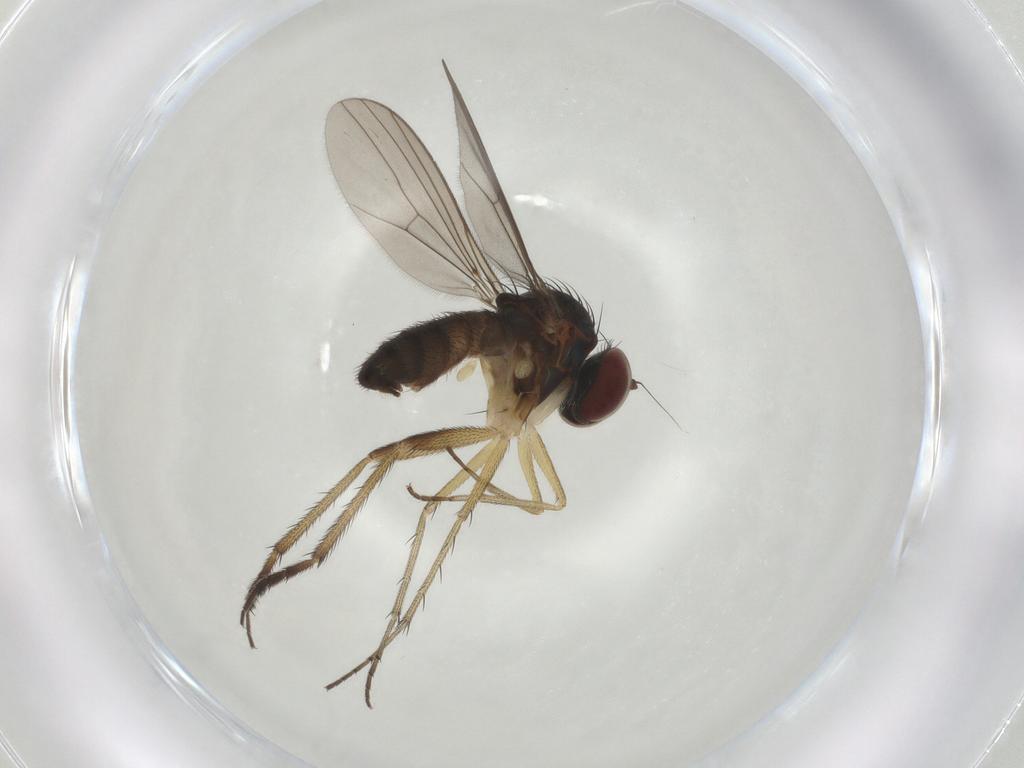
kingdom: Animalia
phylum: Arthropoda
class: Insecta
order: Diptera
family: Dolichopodidae
